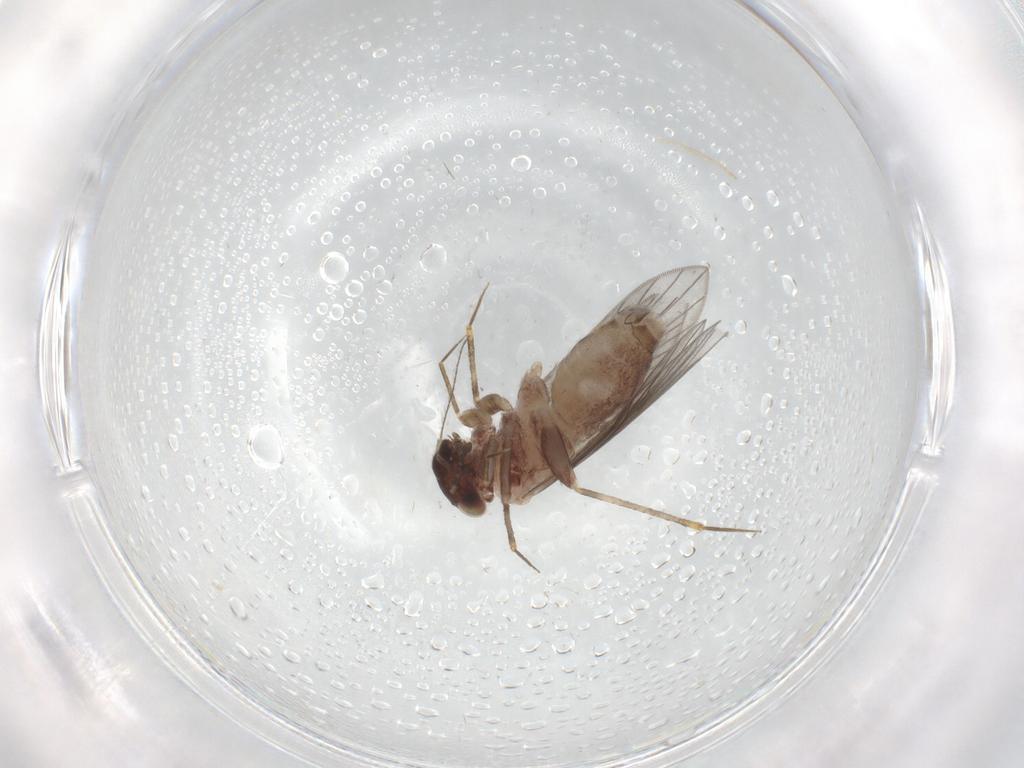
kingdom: Animalia
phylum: Arthropoda
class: Insecta
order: Psocodea
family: Lepidopsocidae
